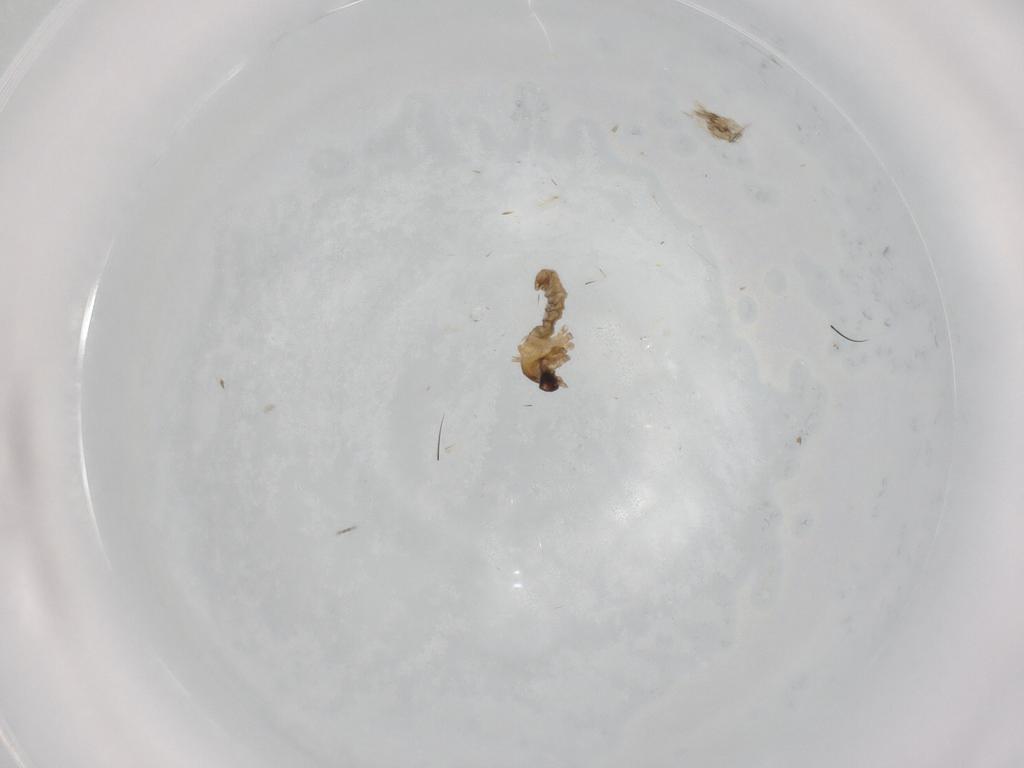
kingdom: Animalia
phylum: Arthropoda
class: Insecta
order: Diptera
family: Cecidomyiidae
